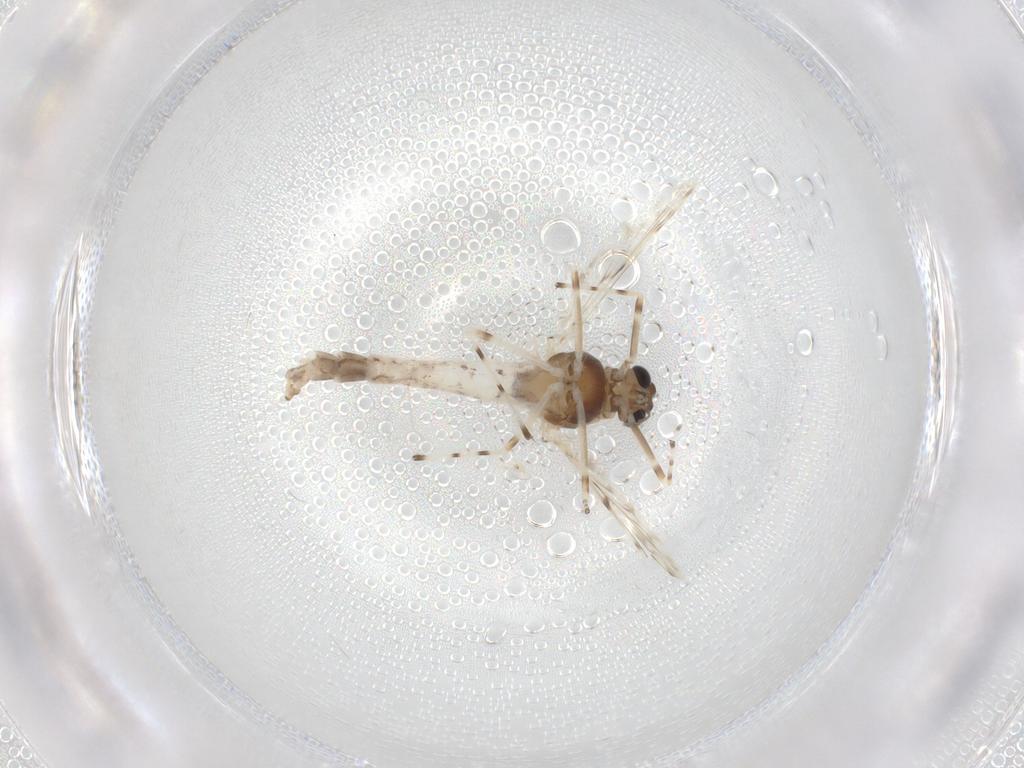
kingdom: Animalia
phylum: Arthropoda
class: Insecta
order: Diptera
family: Chironomidae
